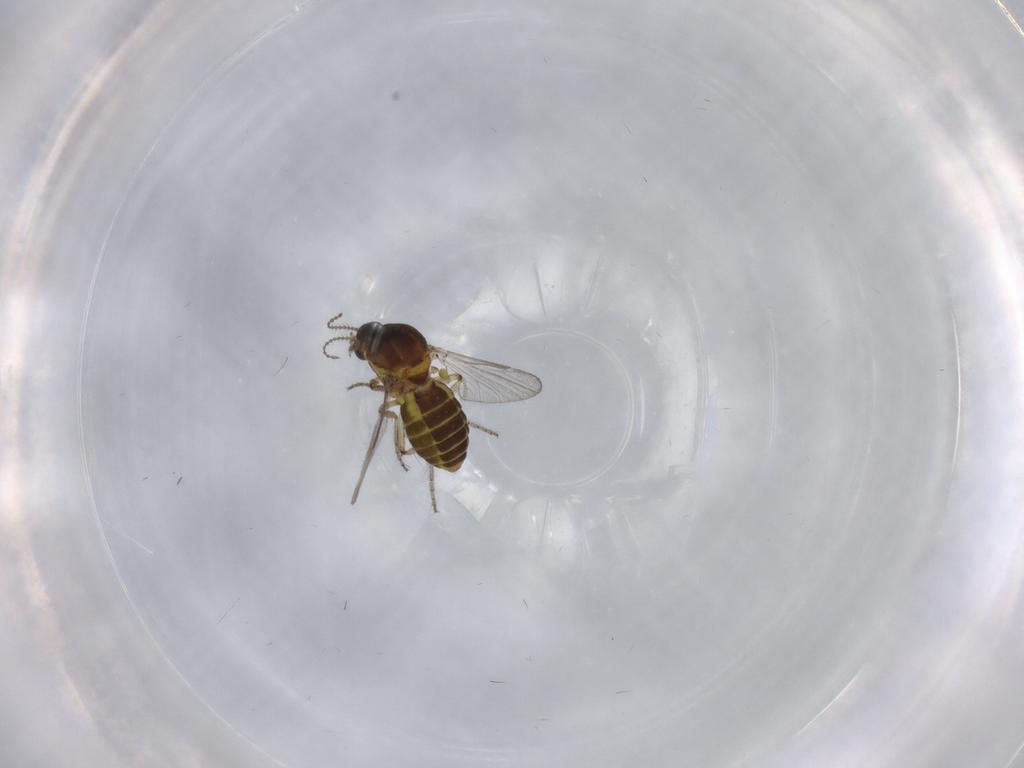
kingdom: Animalia
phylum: Arthropoda
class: Insecta
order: Diptera
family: Ceratopogonidae
